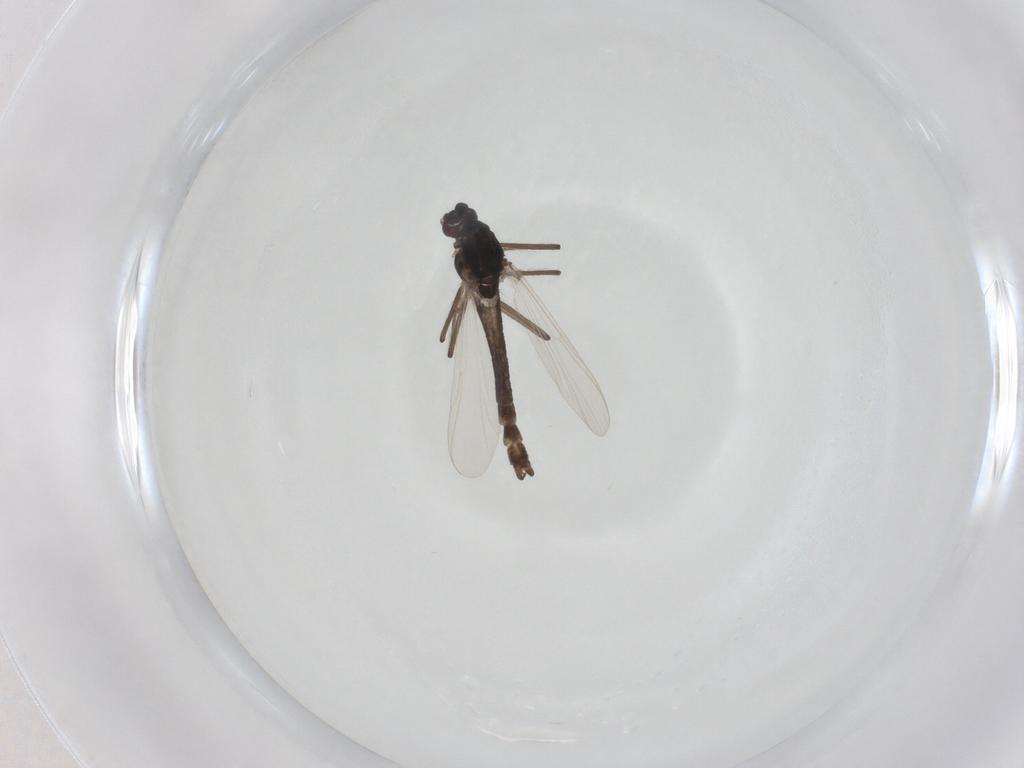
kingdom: Animalia
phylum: Arthropoda
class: Insecta
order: Diptera
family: Chironomidae
